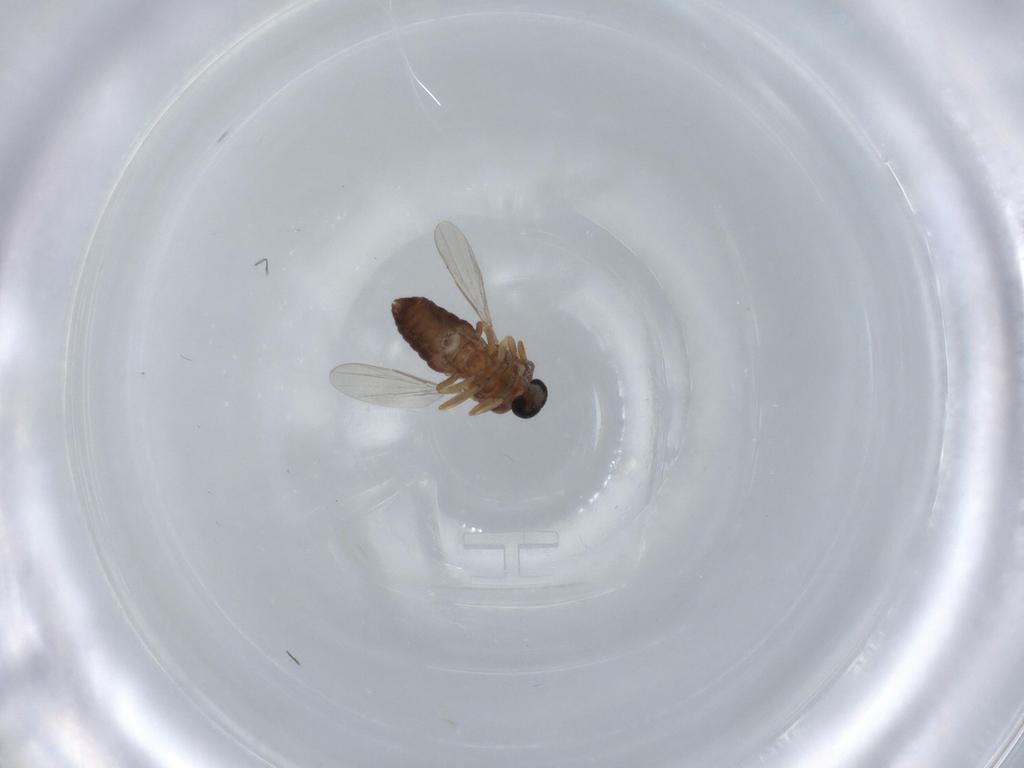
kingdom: Animalia
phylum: Arthropoda
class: Insecta
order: Diptera
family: Chironomidae
